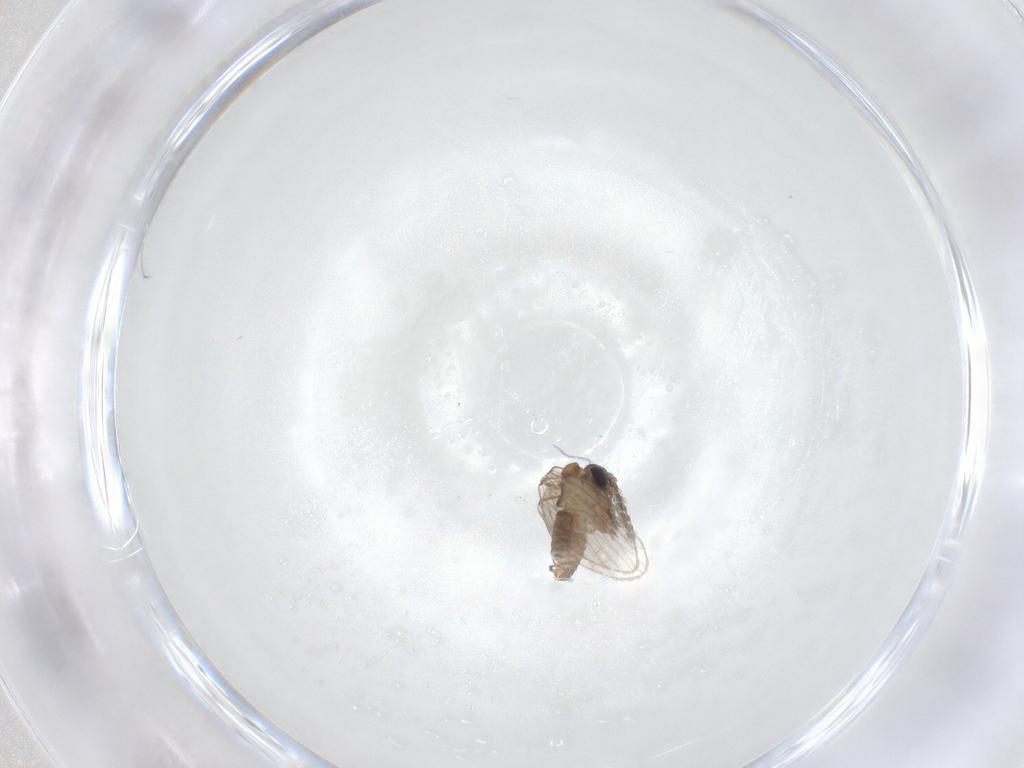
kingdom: Animalia
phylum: Arthropoda
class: Insecta
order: Diptera
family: Psychodidae
